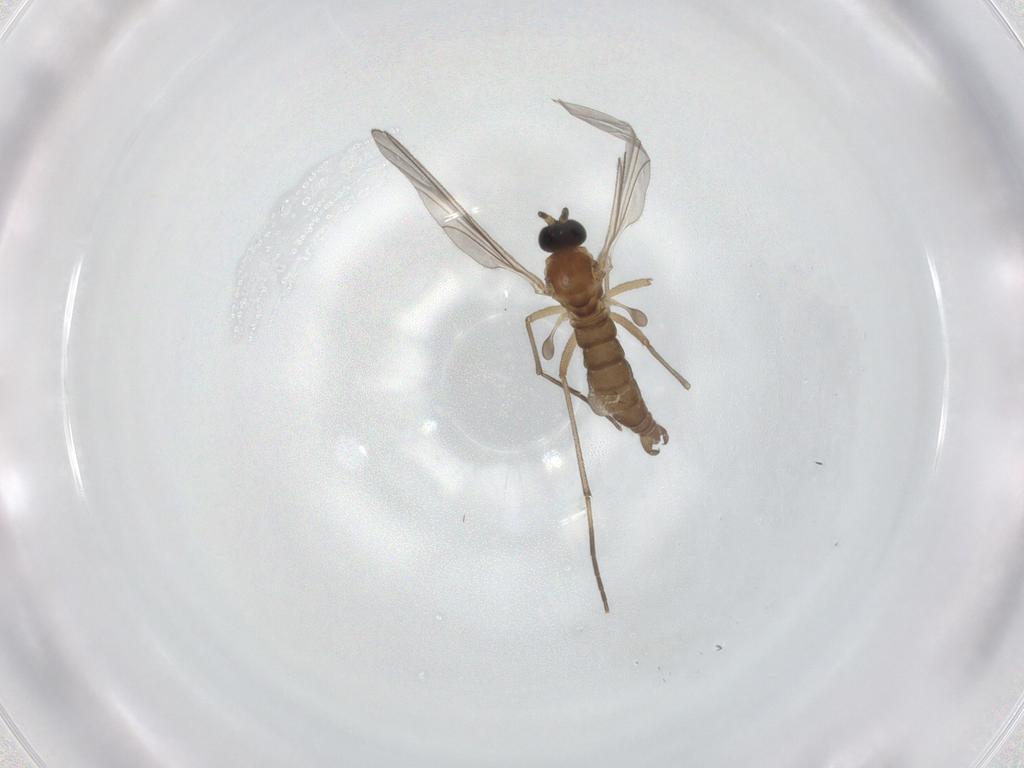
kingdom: Animalia
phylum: Arthropoda
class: Insecta
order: Diptera
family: Sciaridae
